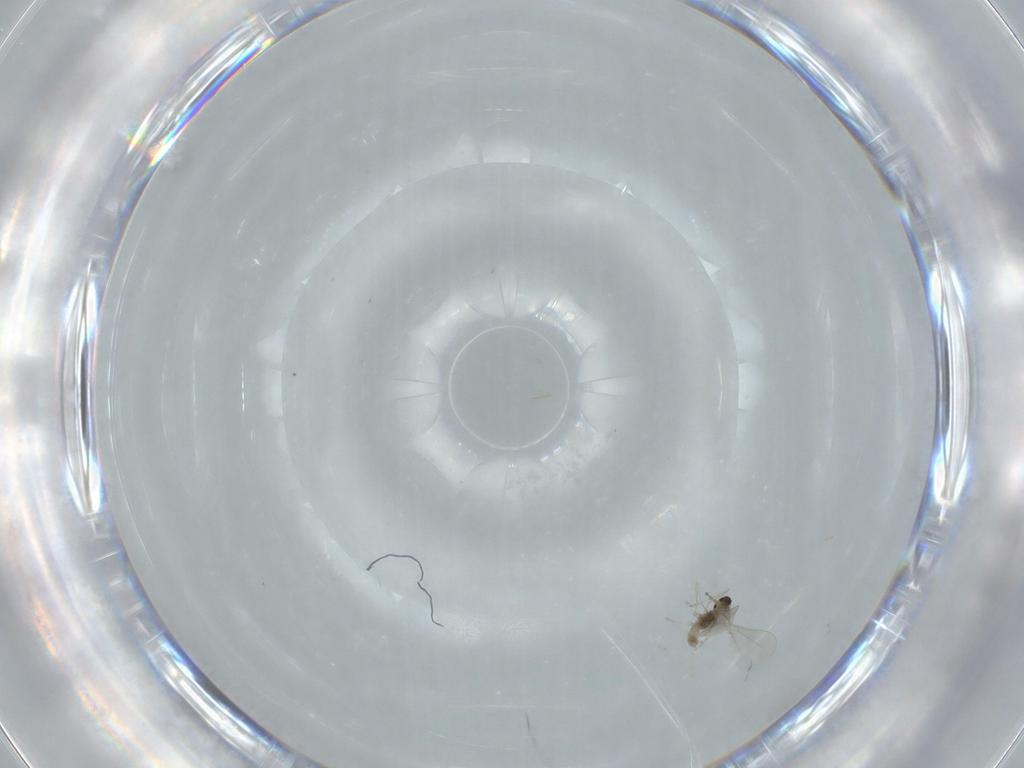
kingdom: Animalia
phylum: Arthropoda
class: Insecta
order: Diptera
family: Cecidomyiidae
